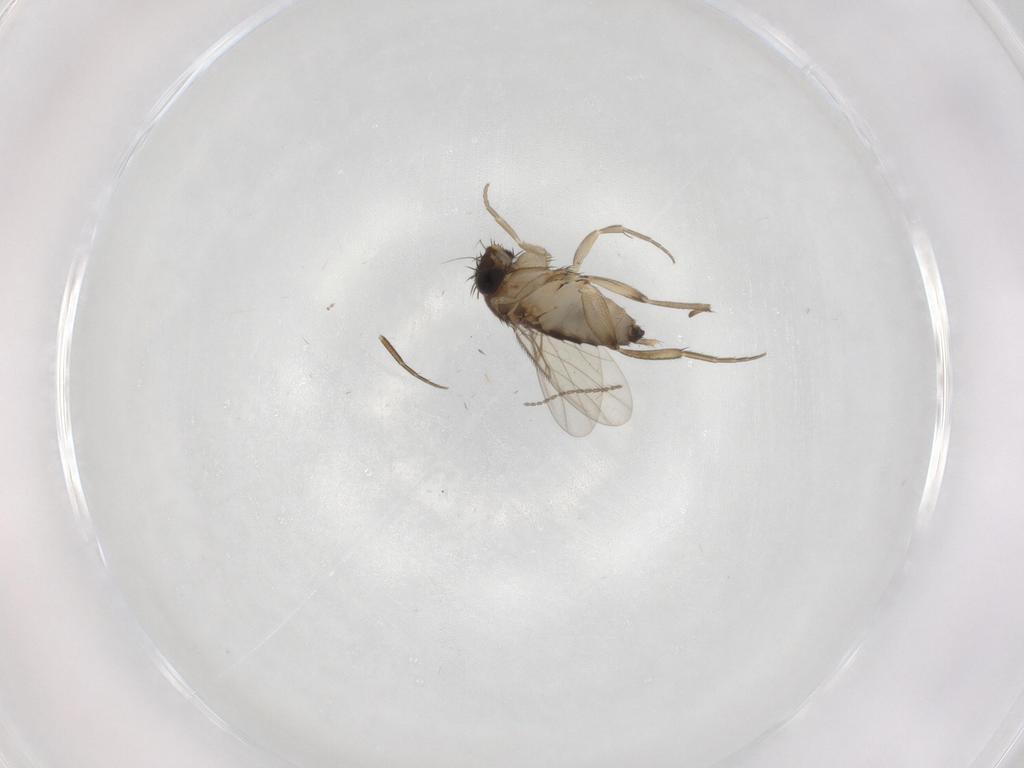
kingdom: Animalia
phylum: Arthropoda
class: Insecta
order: Diptera
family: Phoridae
